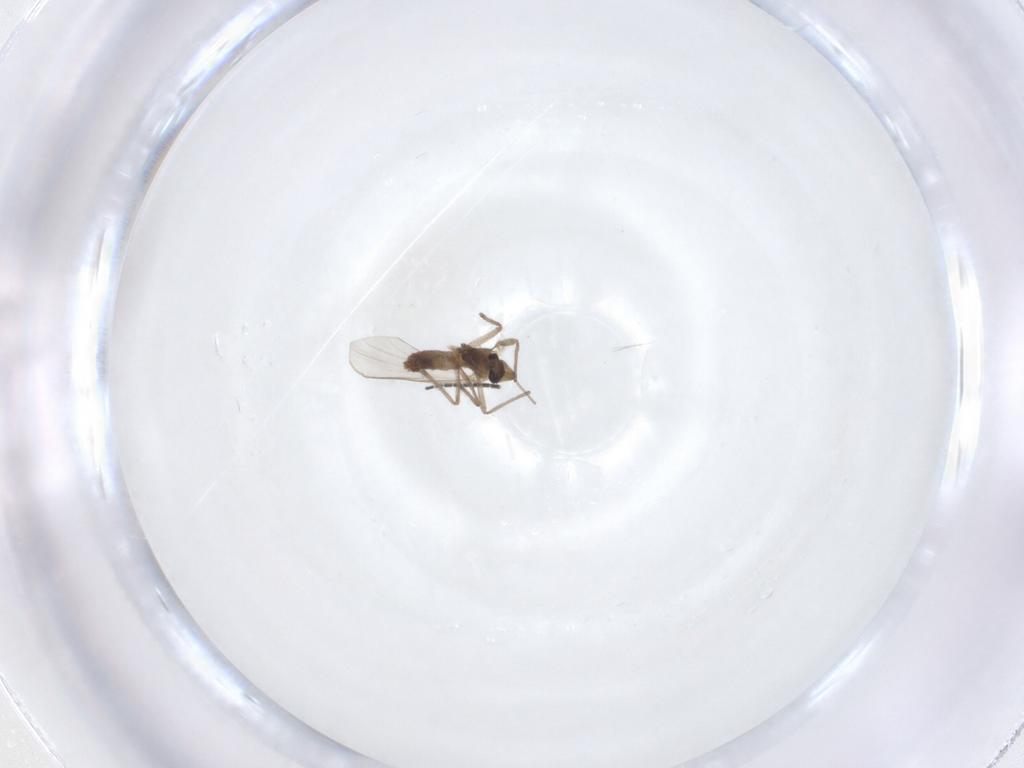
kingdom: Animalia
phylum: Arthropoda
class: Insecta
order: Diptera
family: Sciaridae
